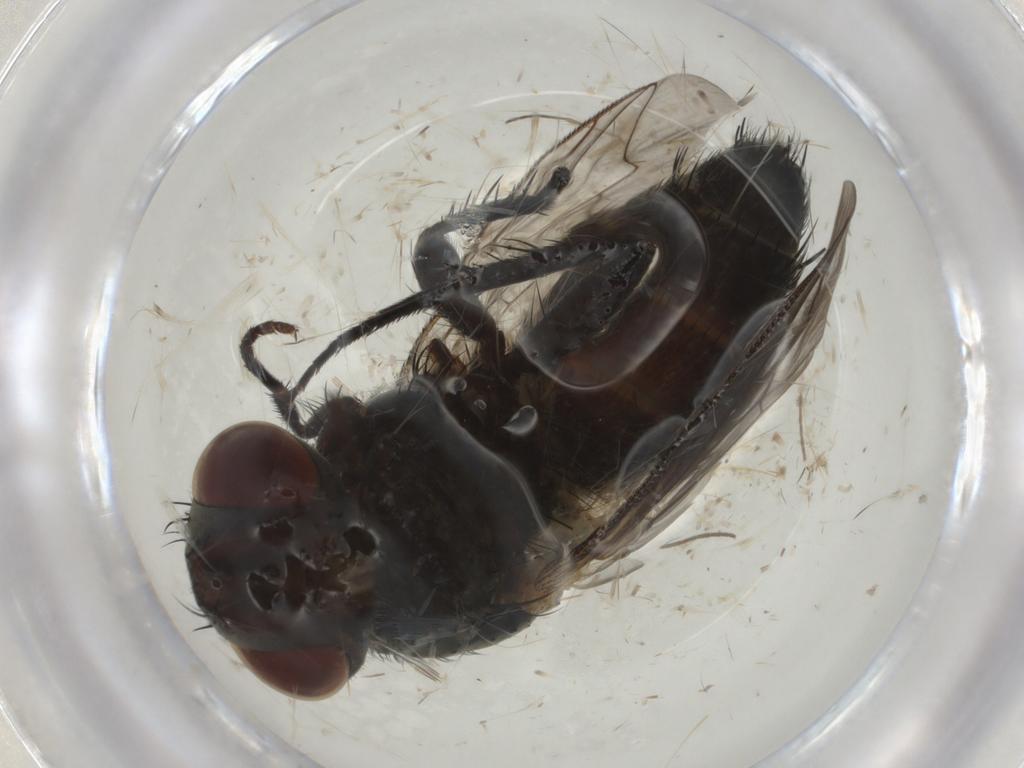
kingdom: Animalia
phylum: Arthropoda
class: Insecta
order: Diptera
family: Sarcophagidae
